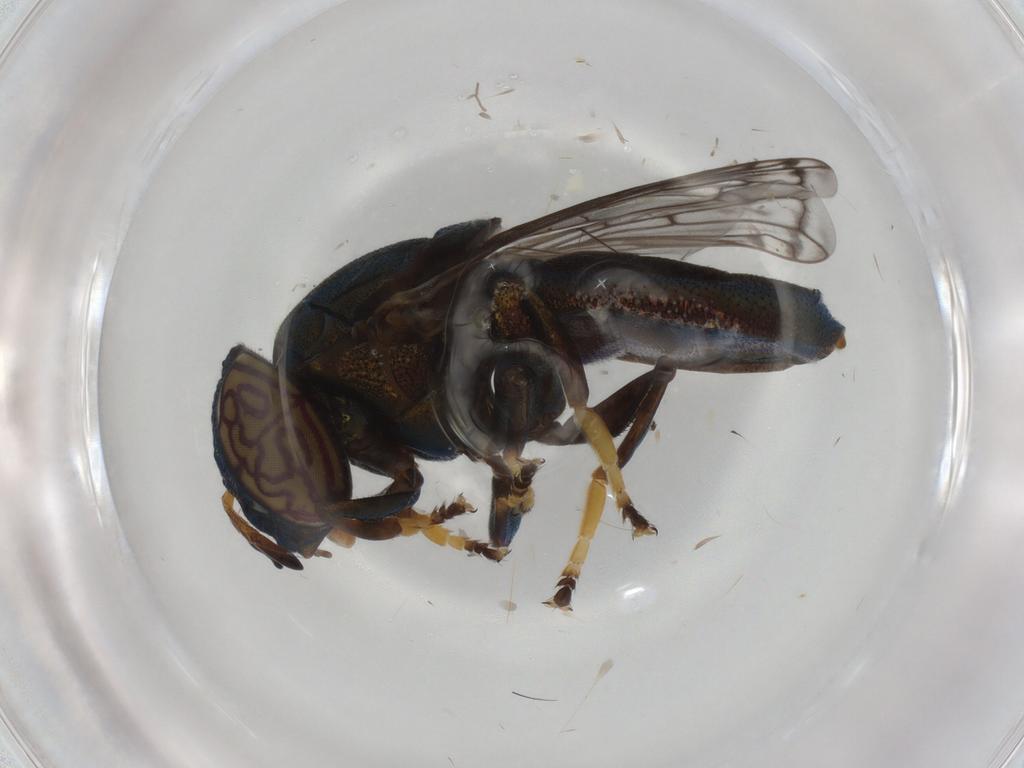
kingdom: Animalia
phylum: Arthropoda
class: Insecta
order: Diptera
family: Syrphidae
